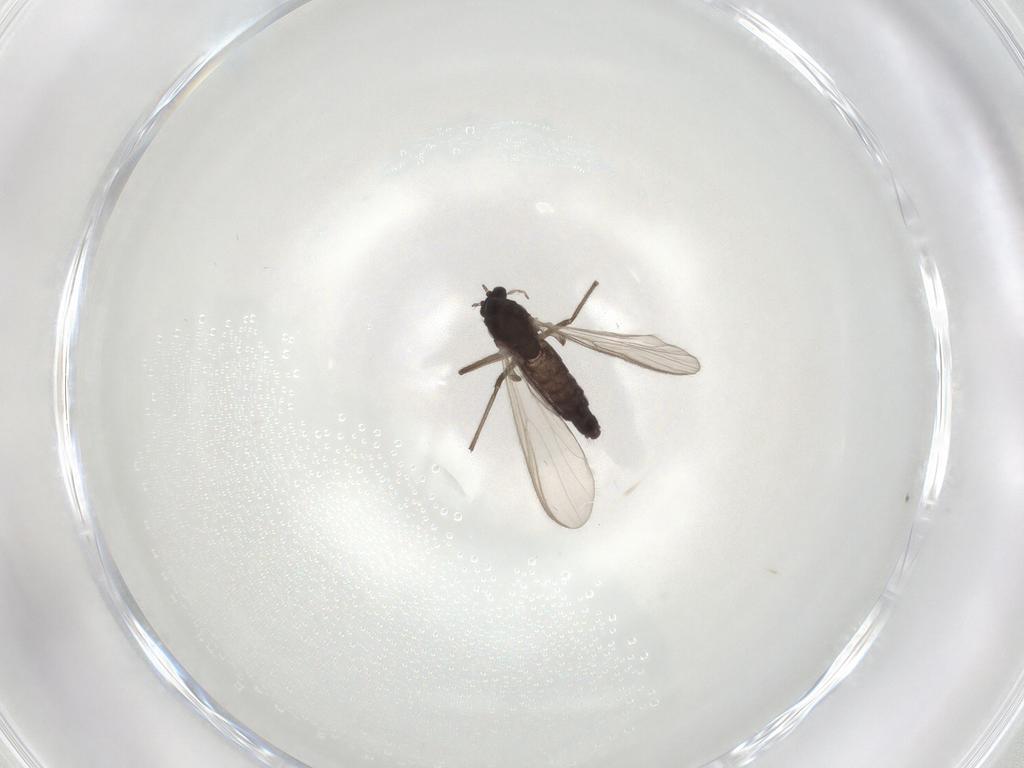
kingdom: Animalia
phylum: Arthropoda
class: Insecta
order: Diptera
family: Chironomidae
